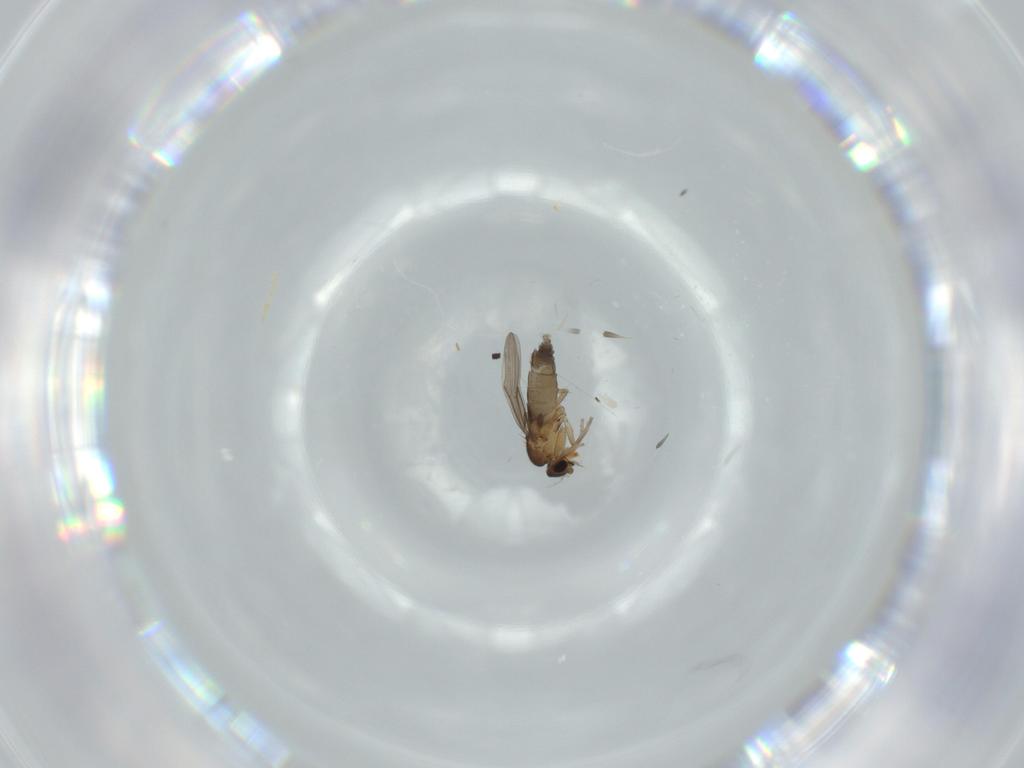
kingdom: Animalia
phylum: Arthropoda
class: Insecta
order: Diptera
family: Phoridae
